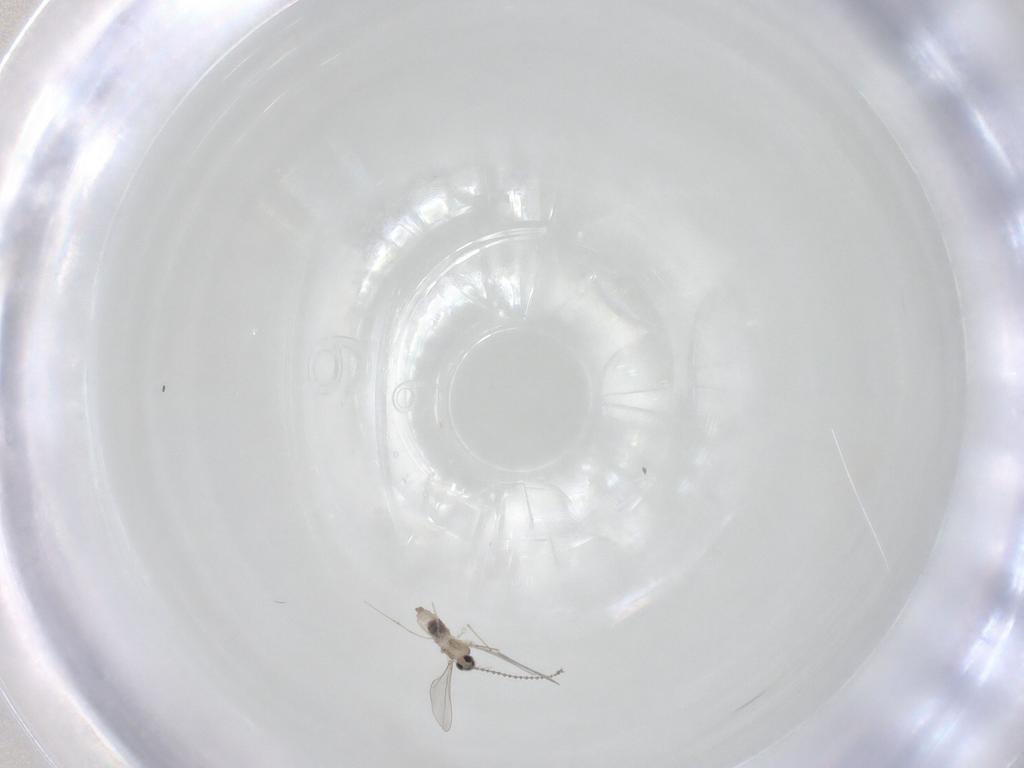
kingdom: Animalia
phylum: Arthropoda
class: Insecta
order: Diptera
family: Cecidomyiidae
